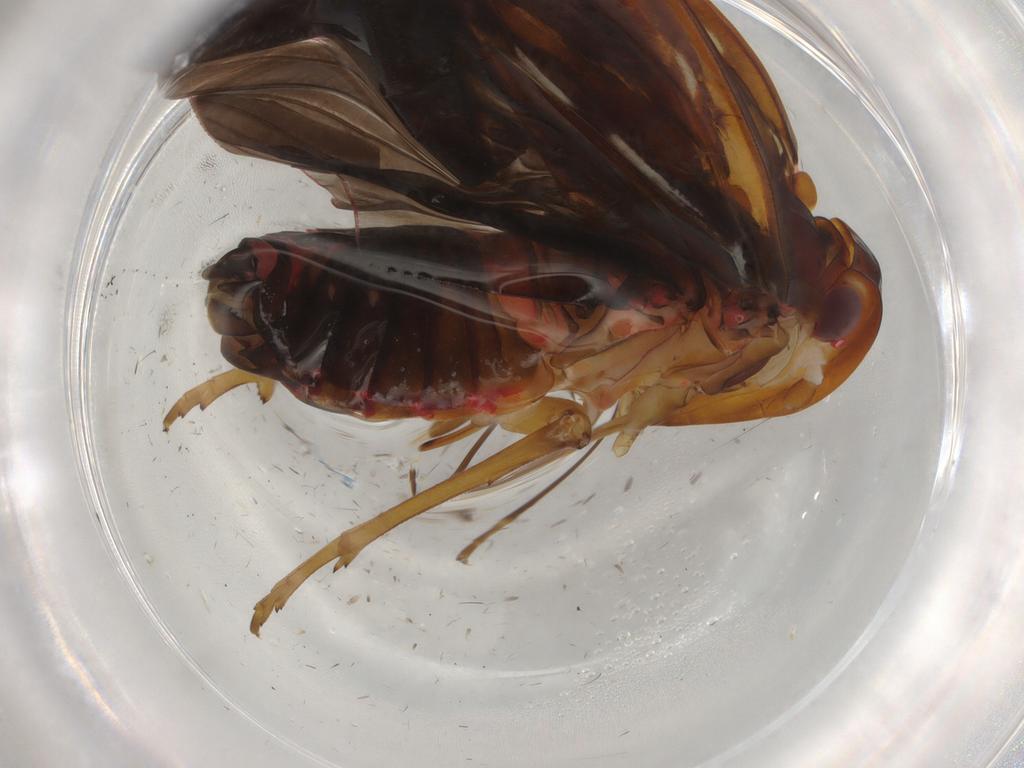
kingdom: Animalia
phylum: Arthropoda
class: Insecta
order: Hemiptera
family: Achilidae
